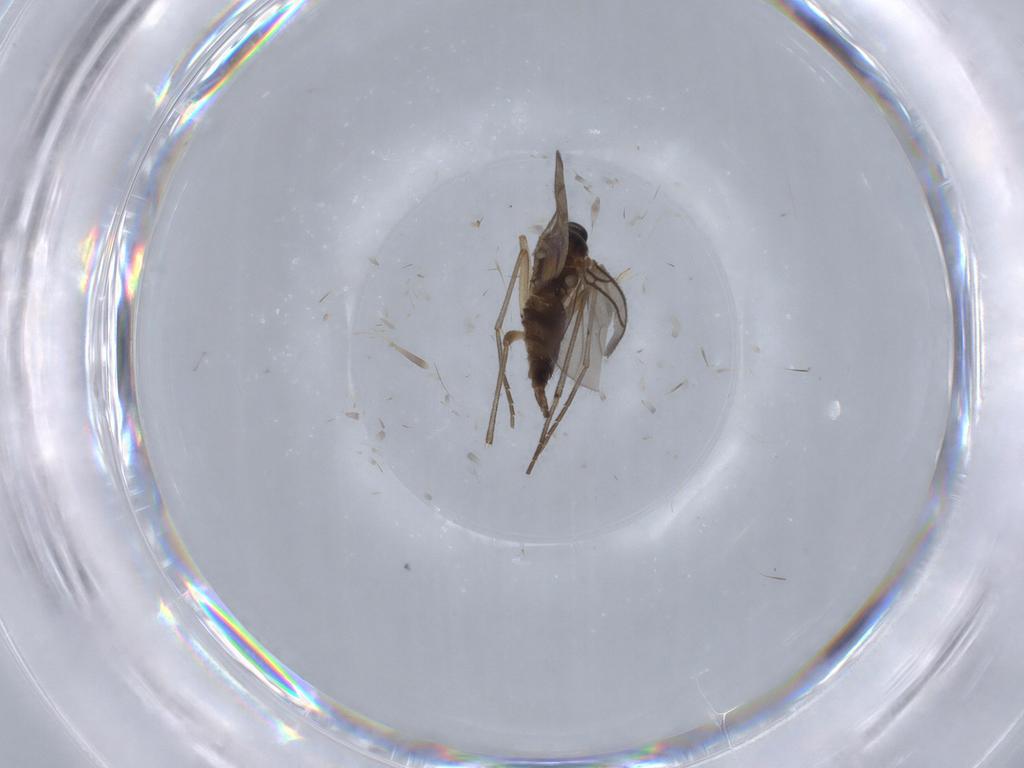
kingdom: Animalia
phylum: Arthropoda
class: Insecta
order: Diptera
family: Sciaridae
